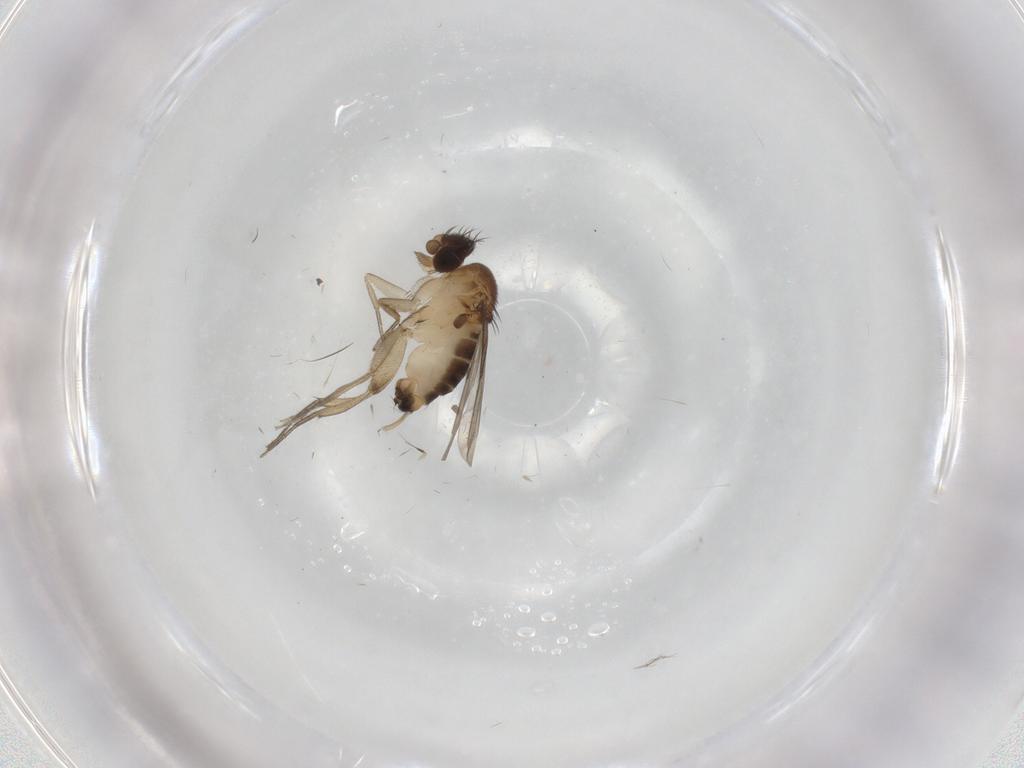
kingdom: Animalia
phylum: Arthropoda
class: Insecta
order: Diptera
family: Cecidomyiidae
